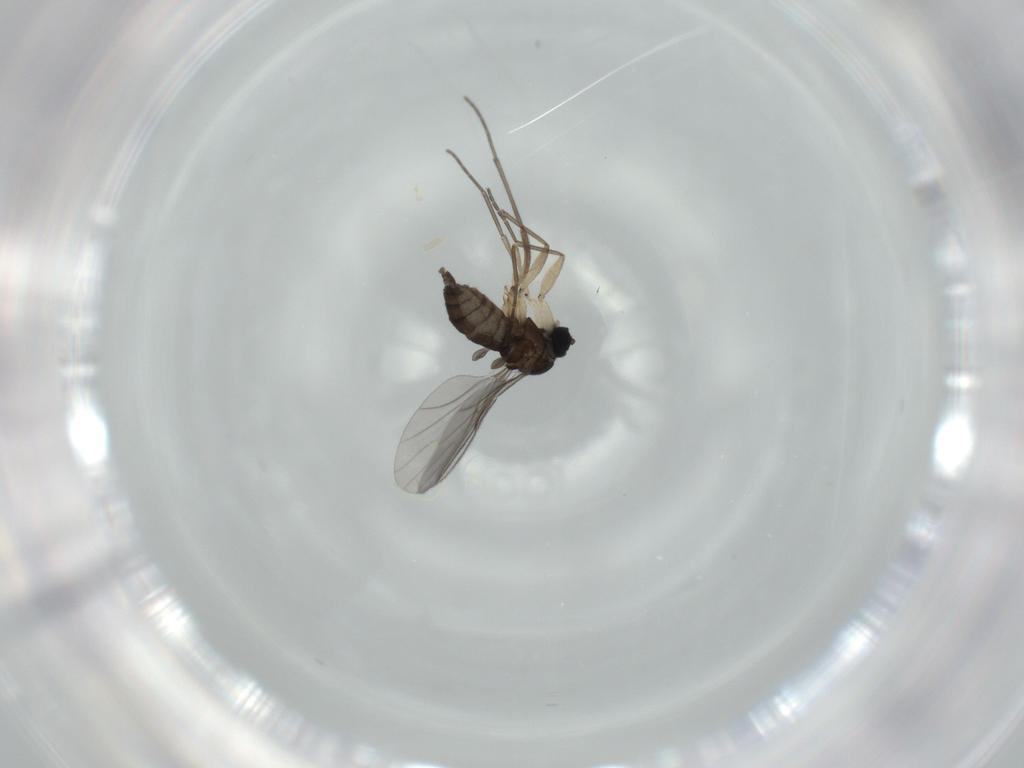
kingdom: Animalia
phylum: Arthropoda
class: Insecta
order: Diptera
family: Sciaridae
